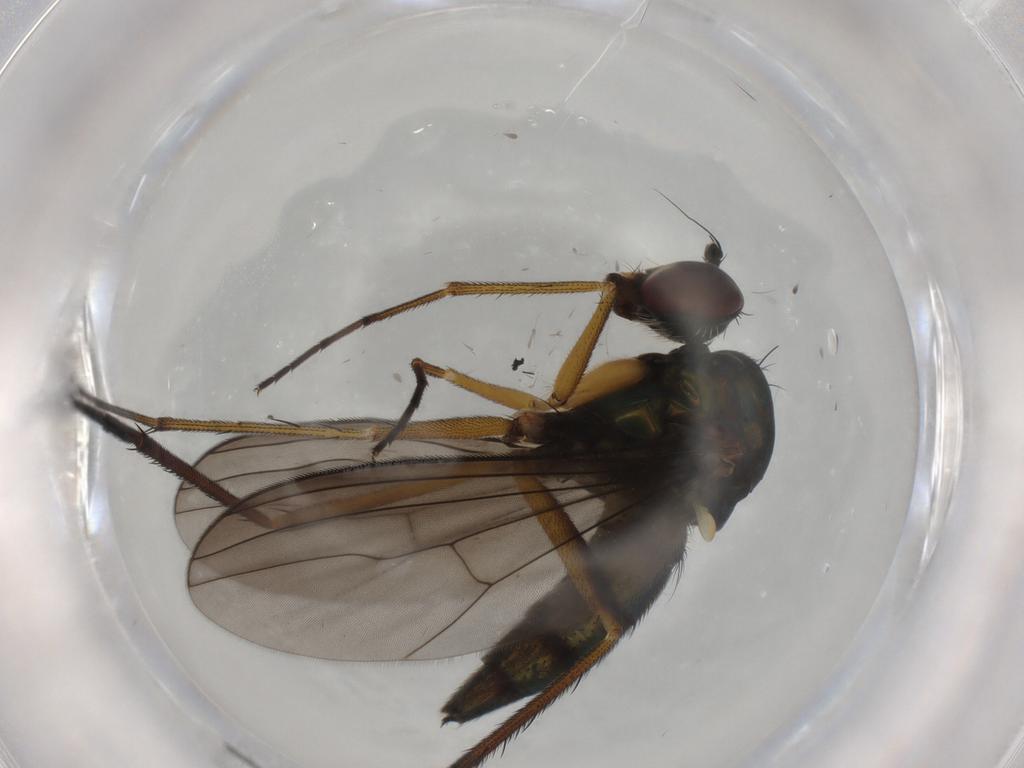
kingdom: Animalia
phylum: Arthropoda
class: Insecta
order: Diptera
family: Dolichopodidae
